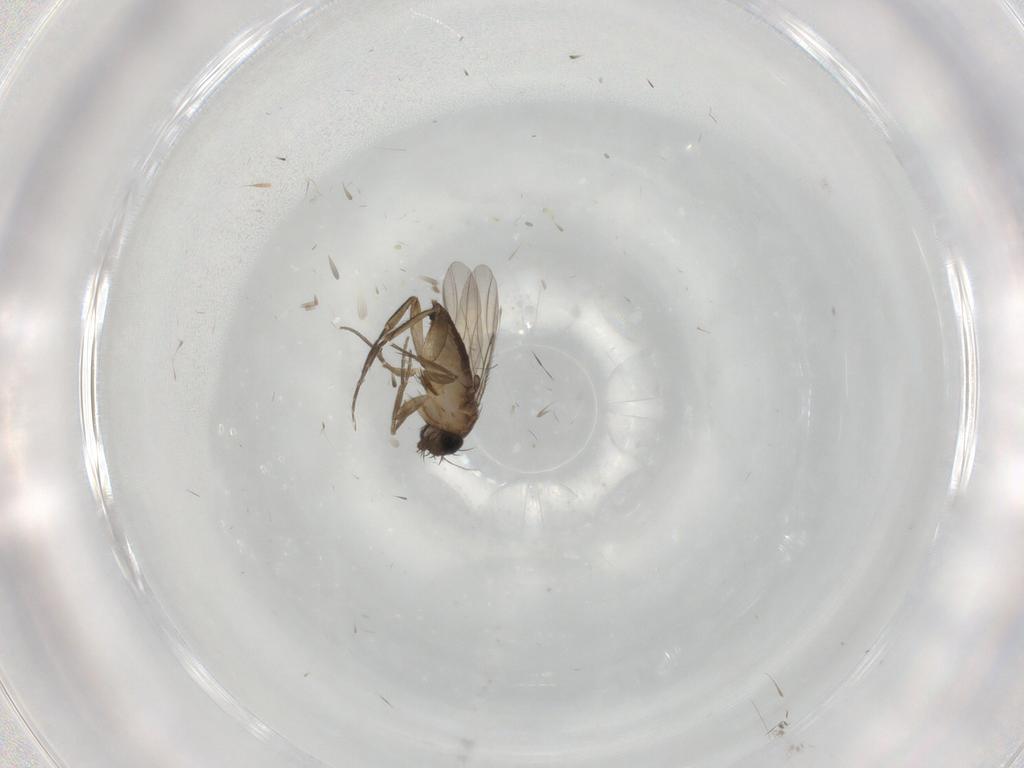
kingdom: Animalia
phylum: Arthropoda
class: Insecta
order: Diptera
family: Phoridae
